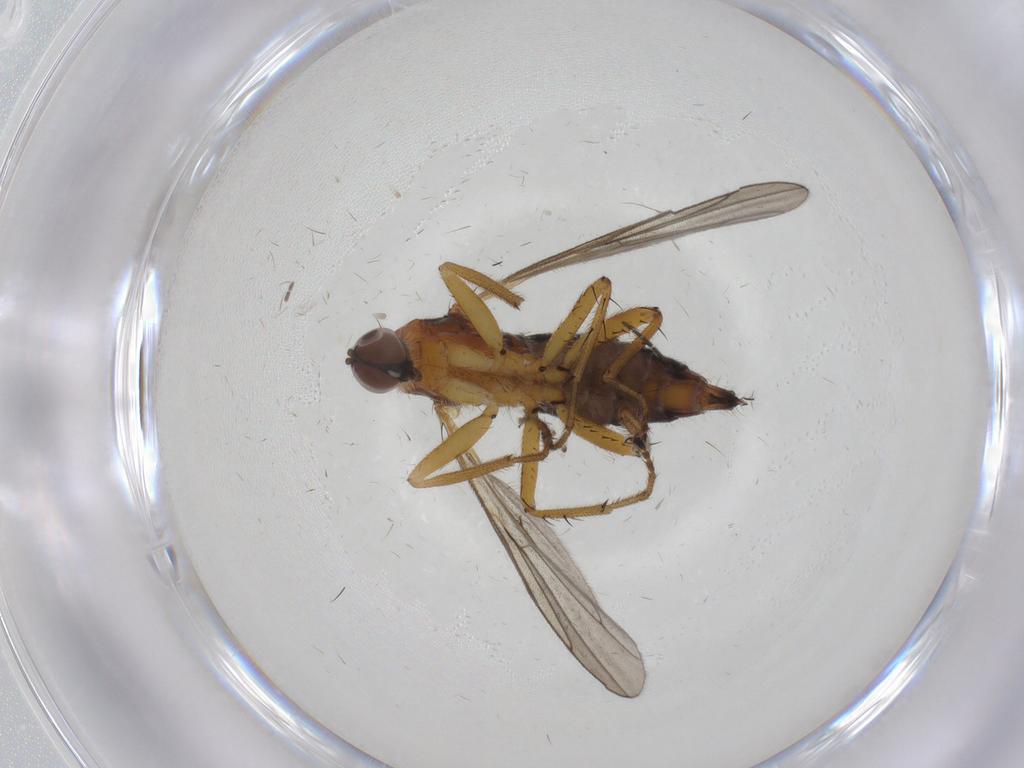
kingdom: Animalia
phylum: Arthropoda
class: Insecta
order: Diptera
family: Hybotidae
